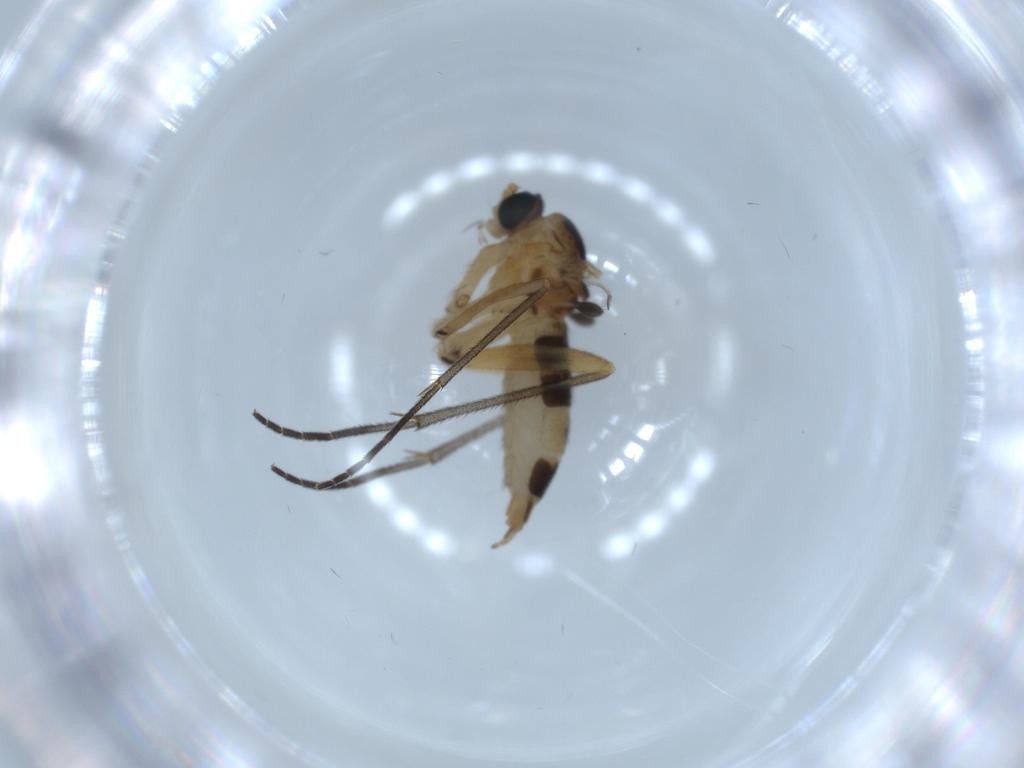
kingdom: Animalia
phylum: Arthropoda
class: Insecta
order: Diptera
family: Sciaridae
